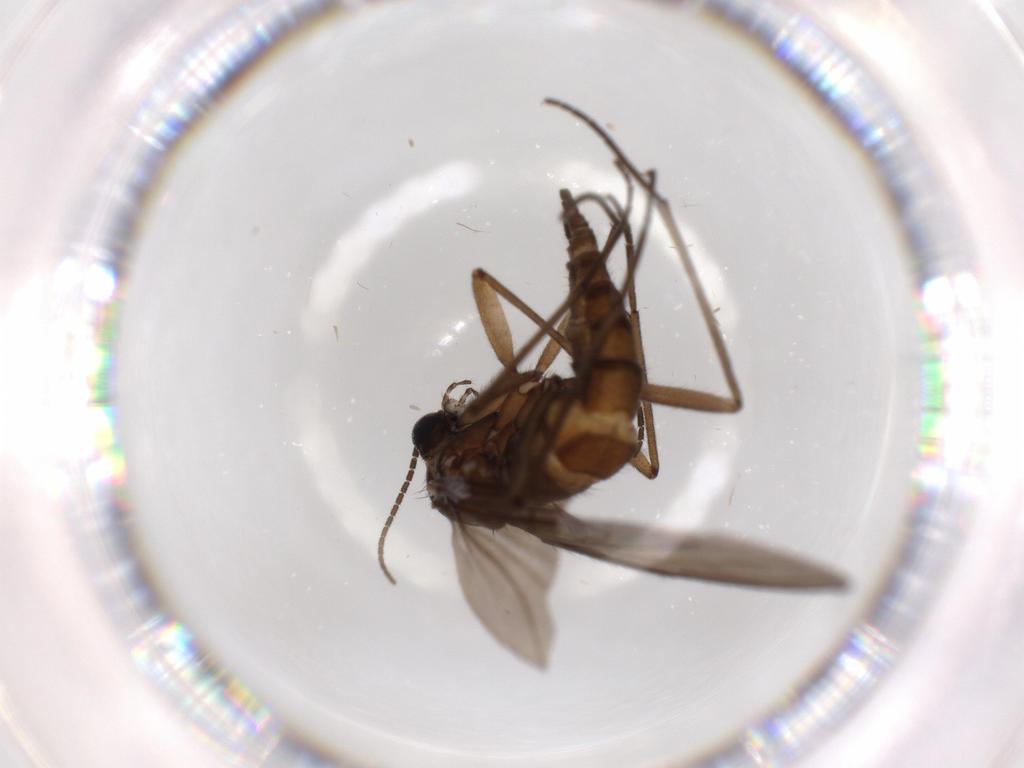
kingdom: Animalia
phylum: Arthropoda
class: Insecta
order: Diptera
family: Sciaridae
